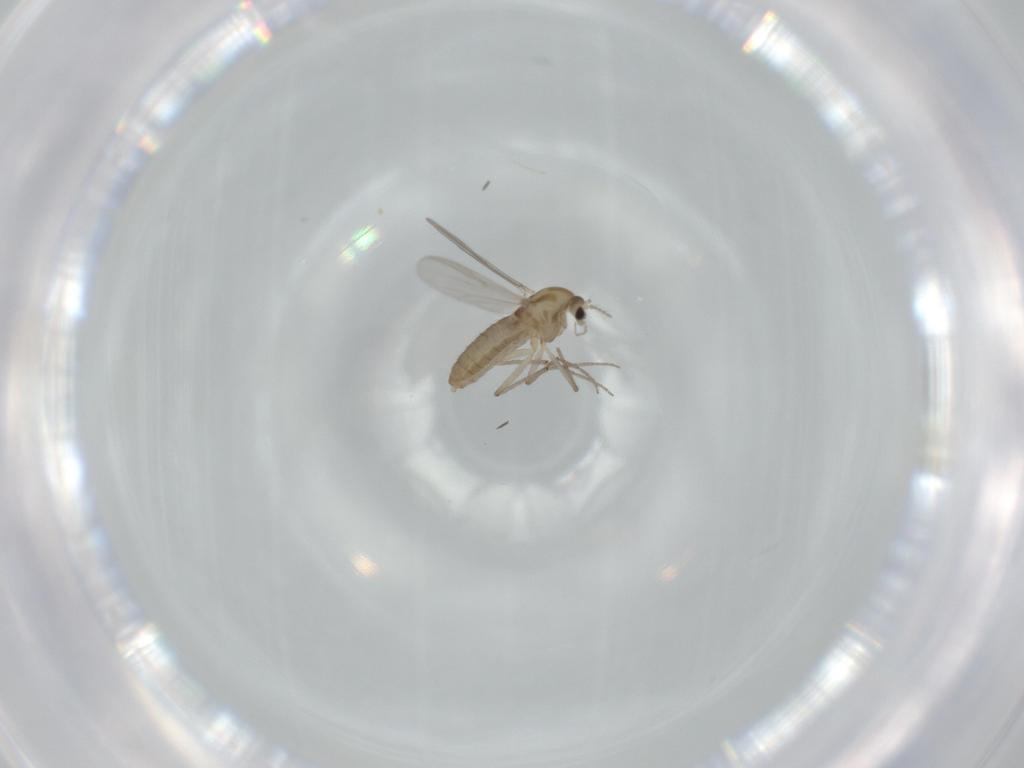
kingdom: Animalia
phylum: Arthropoda
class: Insecta
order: Diptera
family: Chironomidae
